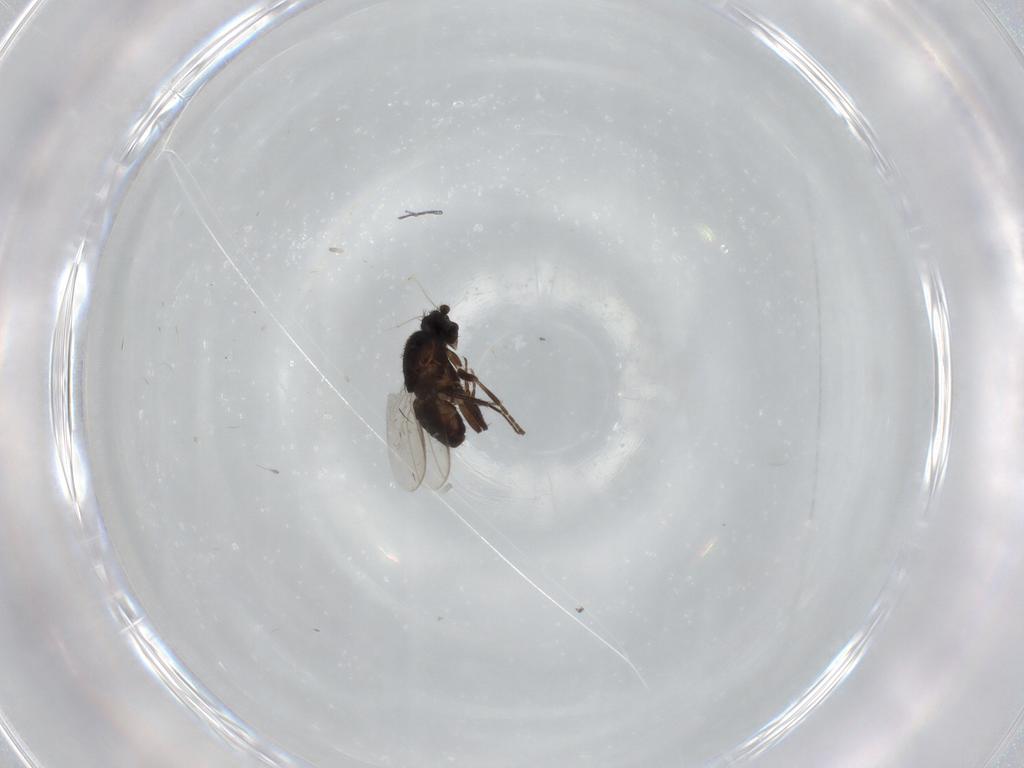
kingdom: Animalia
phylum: Arthropoda
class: Insecta
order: Diptera
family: Sphaeroceridae
